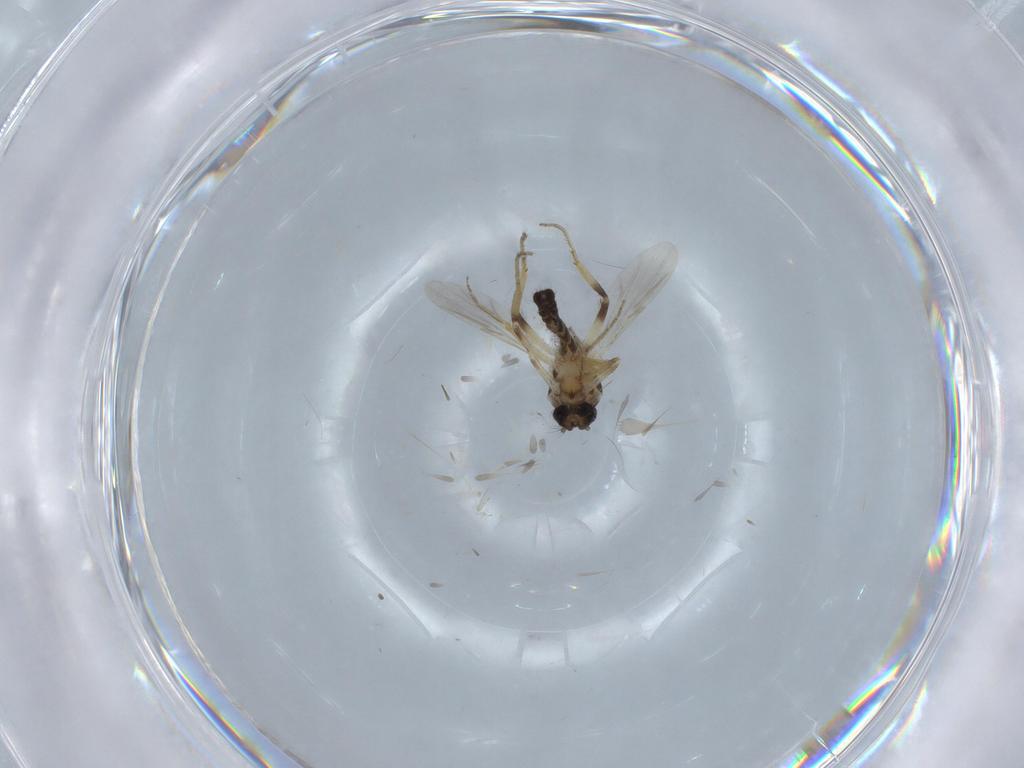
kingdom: Animalia
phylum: Arthropoda
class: Insecta
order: Diptera
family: Ceratopogonidae
